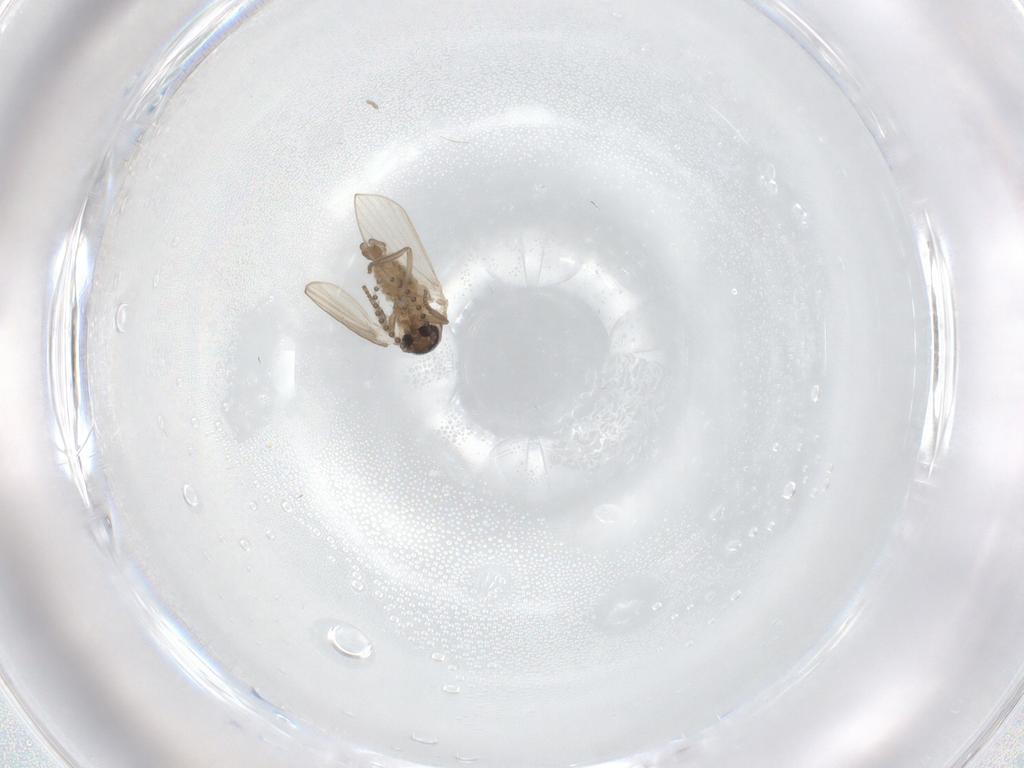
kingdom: Animalia
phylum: Arthropoda
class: Insecta
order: Diptera
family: Psychodidae
